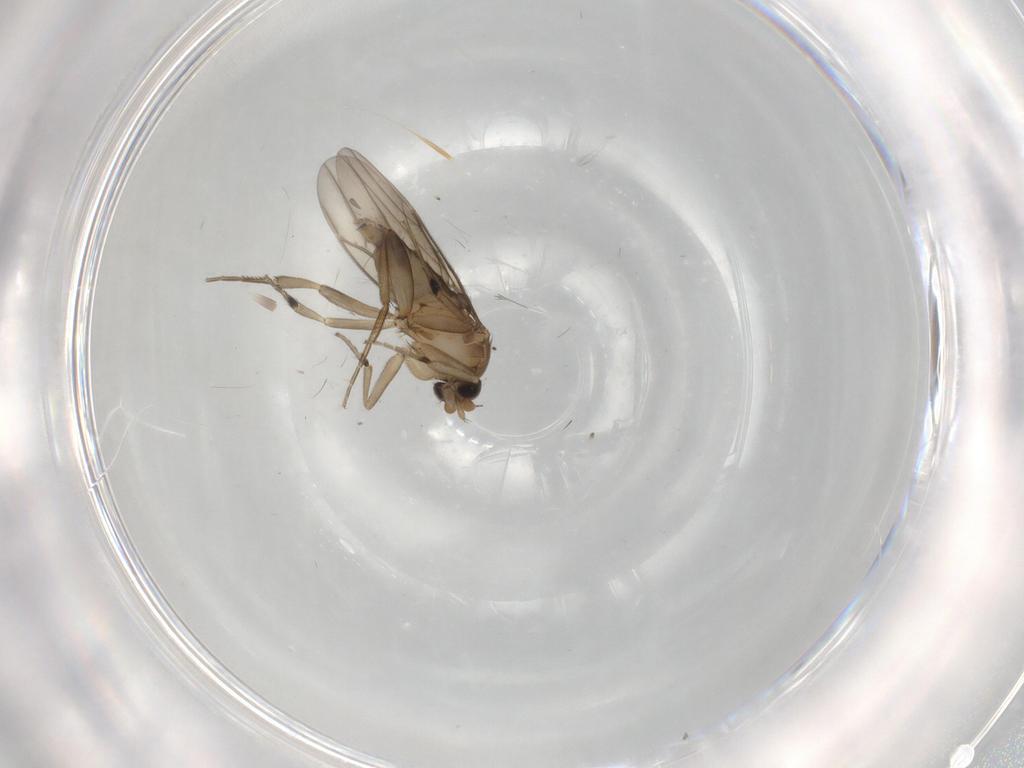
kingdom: Animalia
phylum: Arthropoda
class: Insecta
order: Diptera
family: Phoridae
